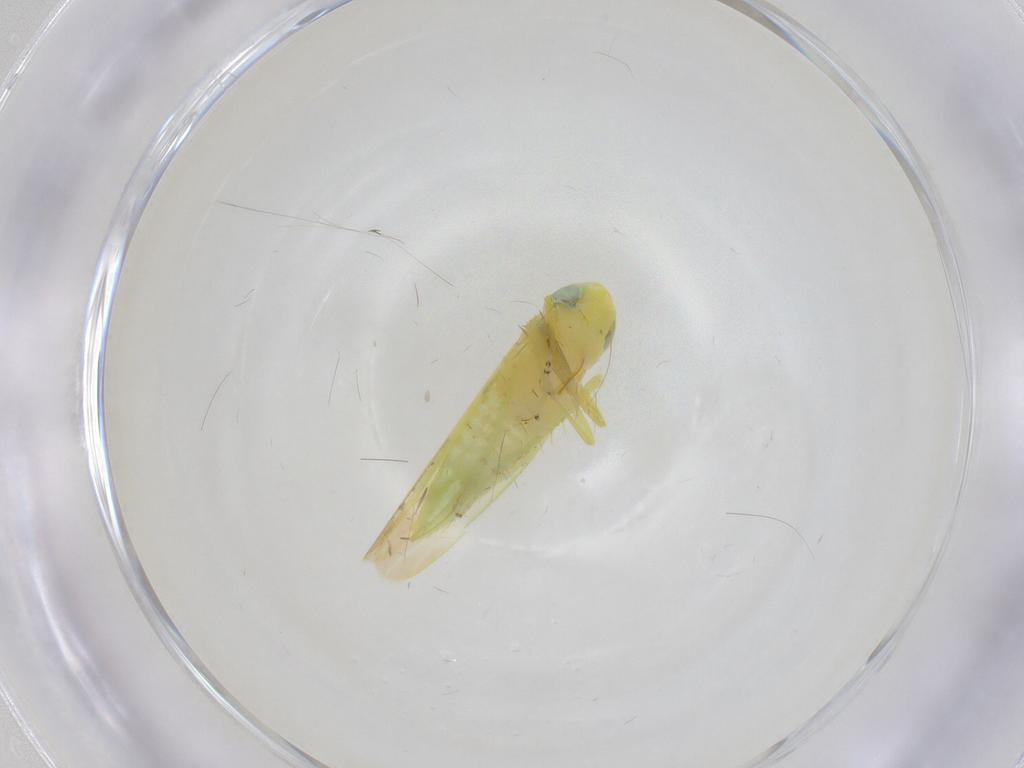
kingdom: Animalia
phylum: Arthropoda
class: Insecta
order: Hemiptera
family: Cicadellidae
